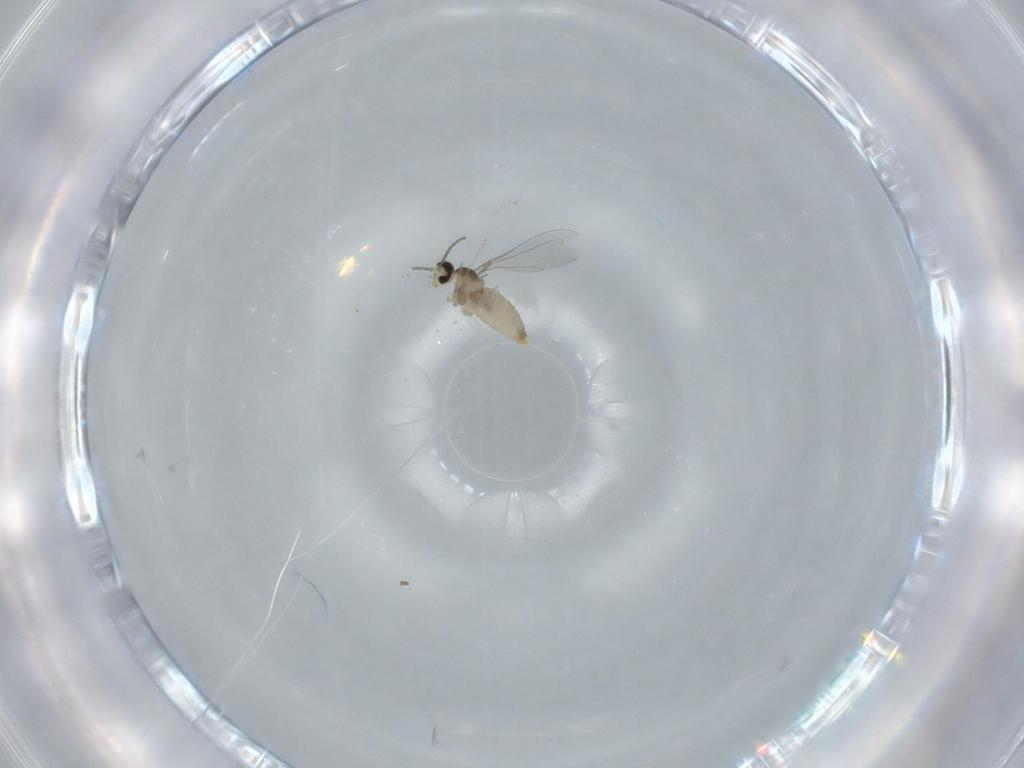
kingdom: Animalia
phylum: Arthropoda
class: Insecta
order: Diptera
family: Cecidomyiidae
